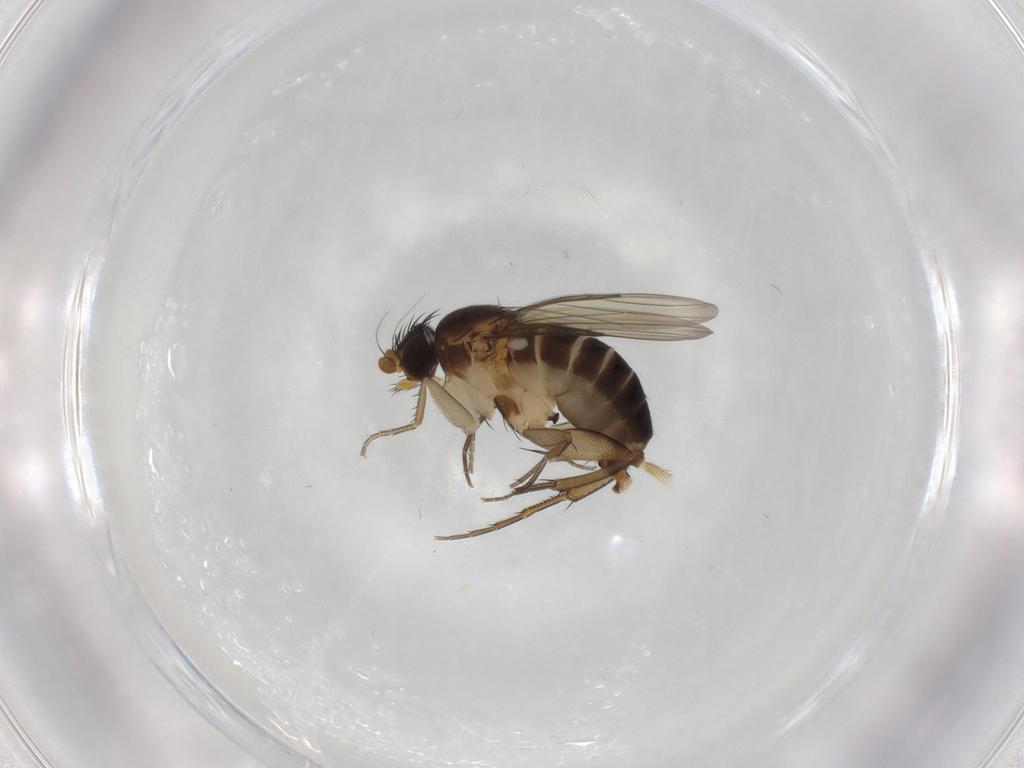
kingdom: Animalia
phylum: Arthropoda
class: Insecta
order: Diptera
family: Phoridae
